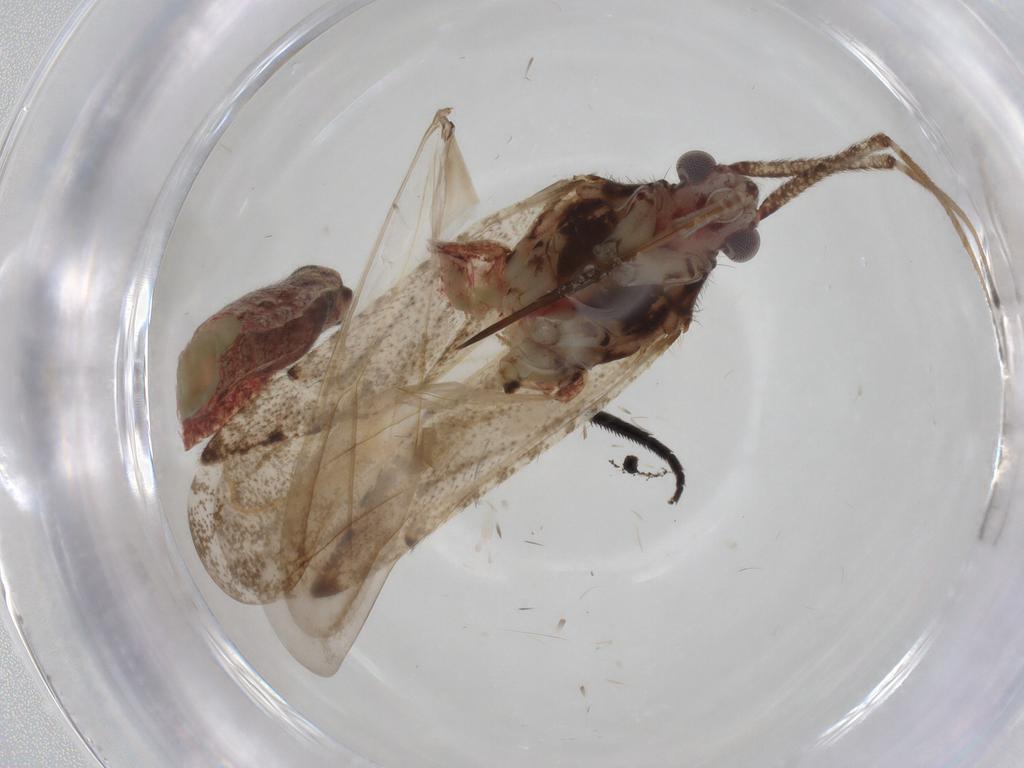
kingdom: Animalia
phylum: Arthropoda
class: Insecta
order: Hemiptera
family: Miridae
